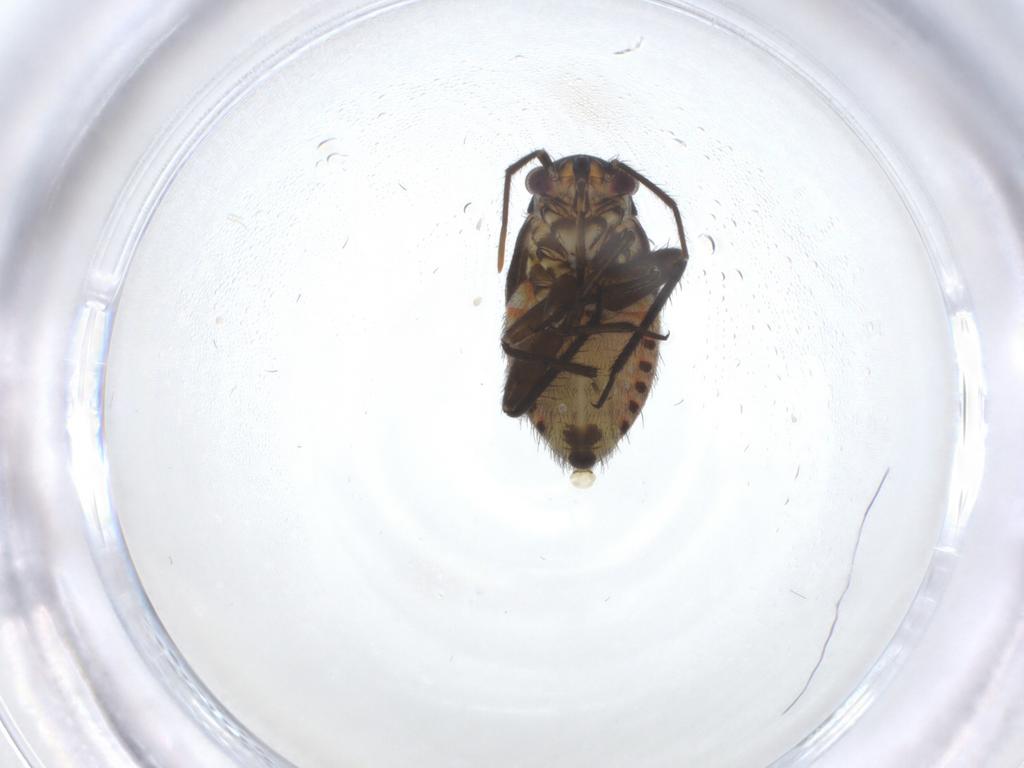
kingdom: Animalia
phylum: Arthropoda
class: Insecta
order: Hemiptera
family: Miridae
